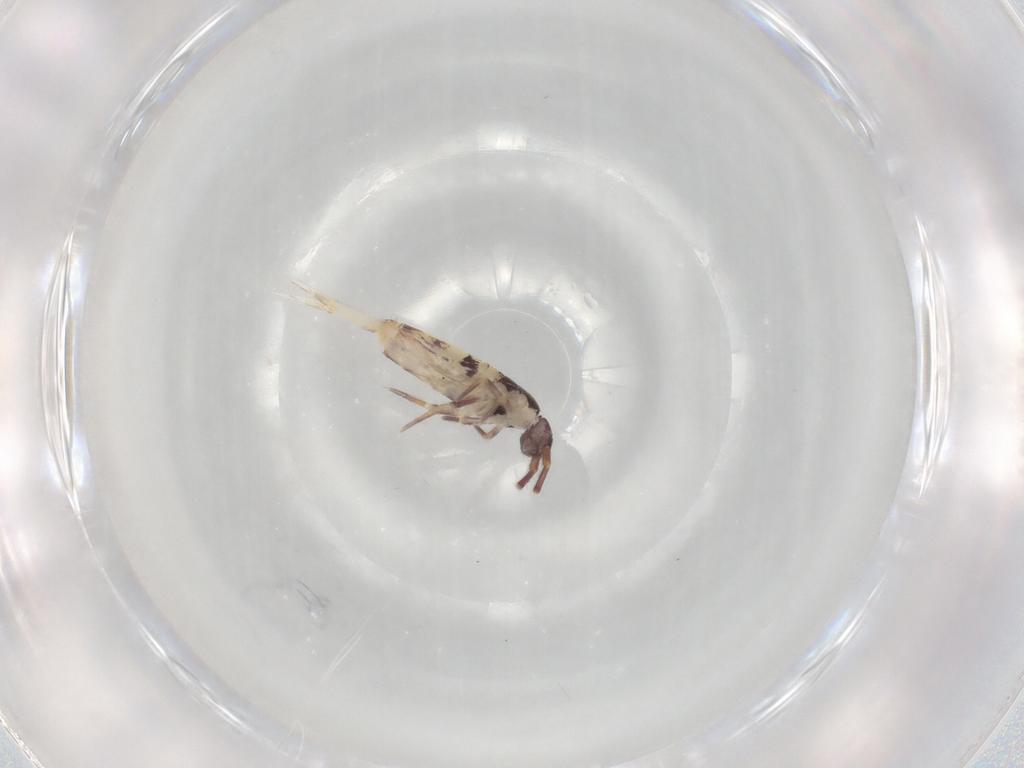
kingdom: Animalia
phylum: Arthropoda
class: Collembola
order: Entomobryomorpha
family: Entomobryidae
